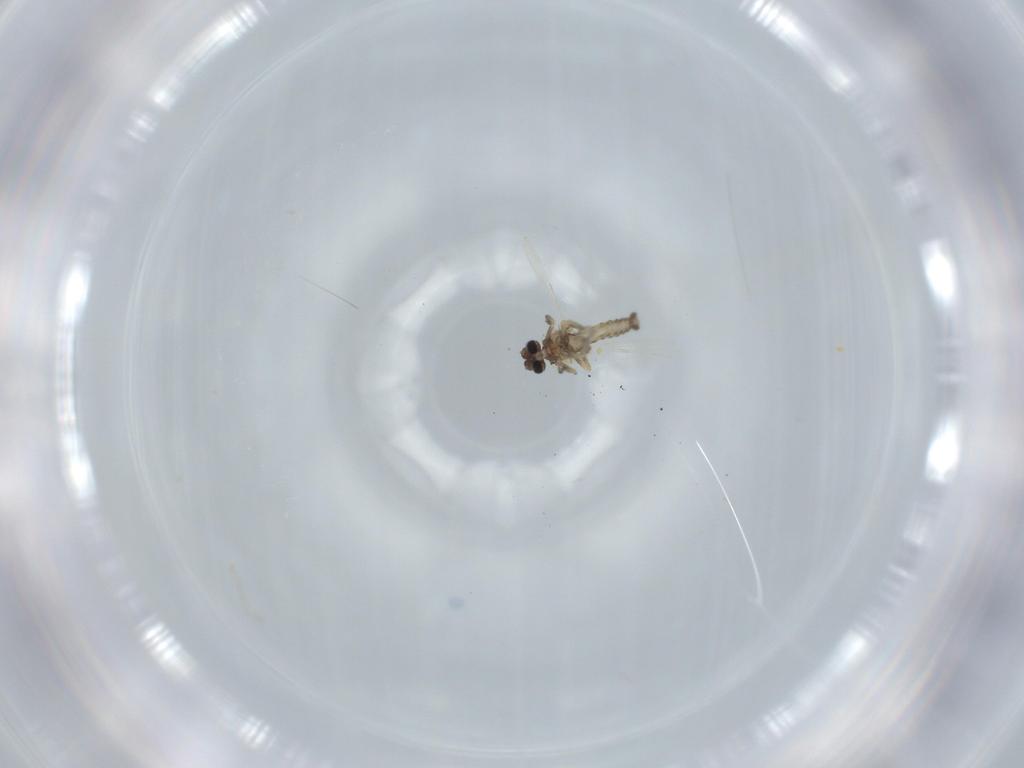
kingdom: Animalia
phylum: Arthropoda
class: Insecta
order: Diptera
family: Ceratopogonidae
